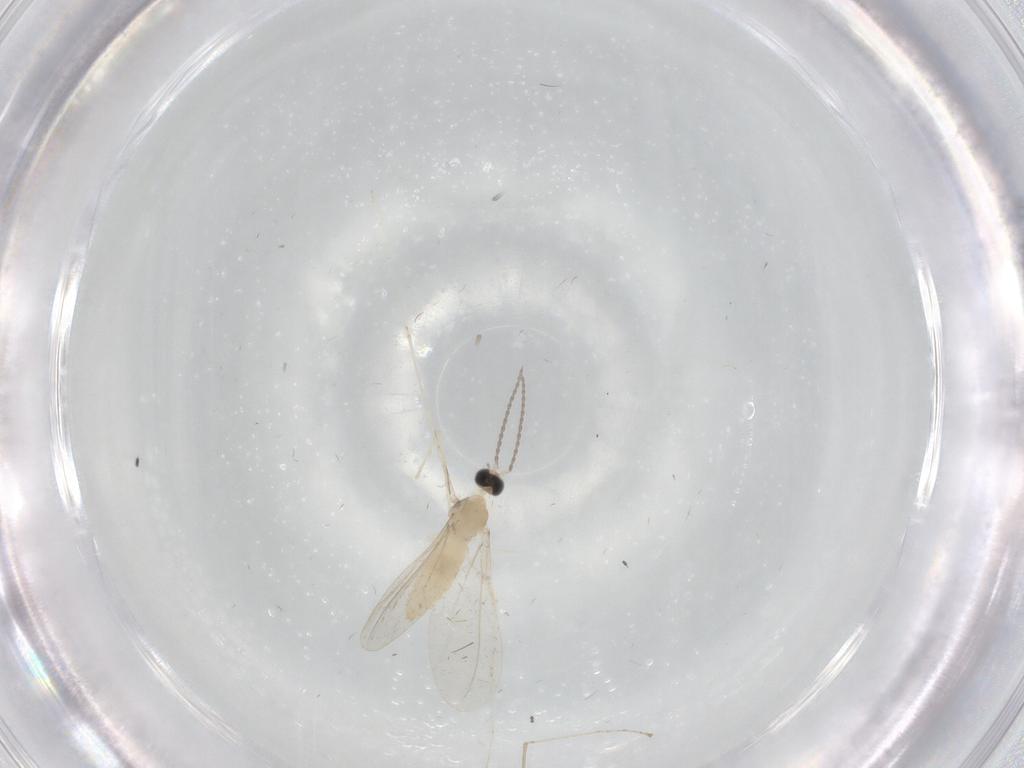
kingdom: Animalia
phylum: Arthropoda
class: Insecta
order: Diptera
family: Cecidomyiidae
